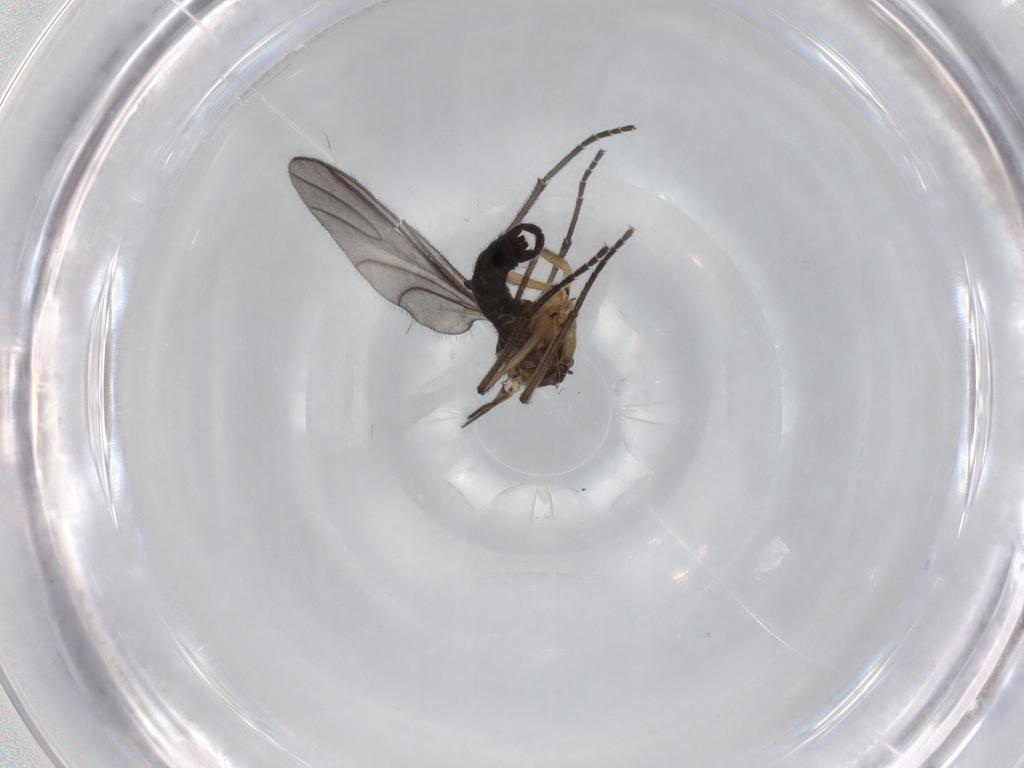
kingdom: Animalia
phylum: Arthropoda
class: Insecta
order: Diptera
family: Sciaridae
